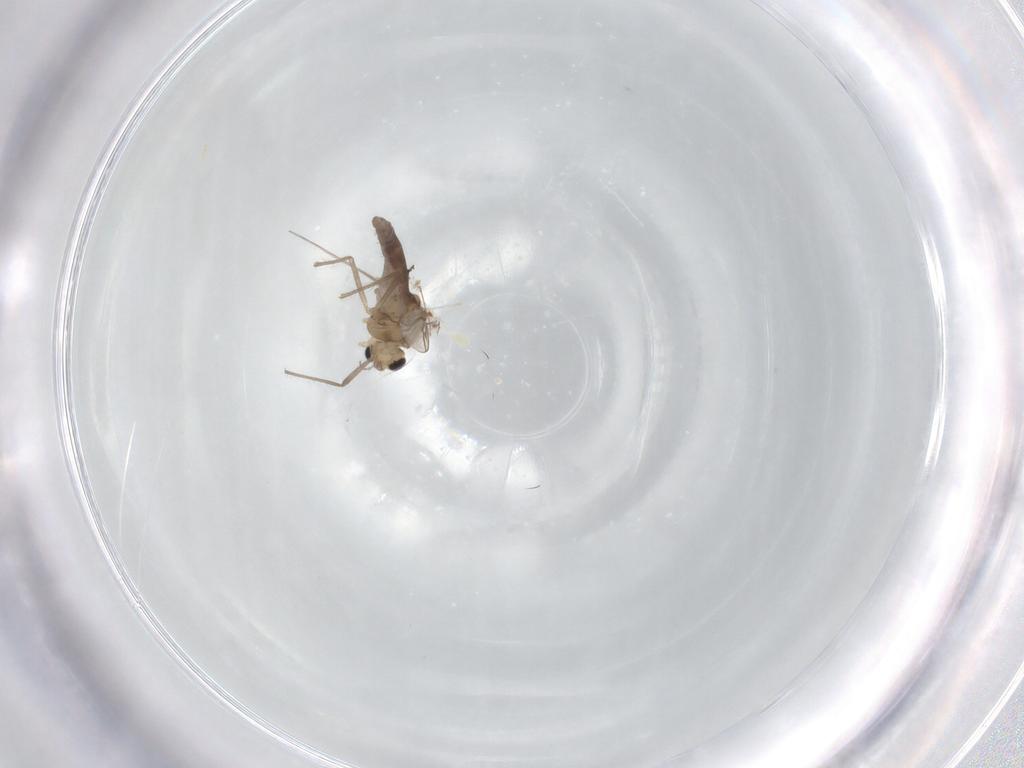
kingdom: Animalia
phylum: Arthropoda
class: Insecta
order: Diptera
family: Chironomidae
